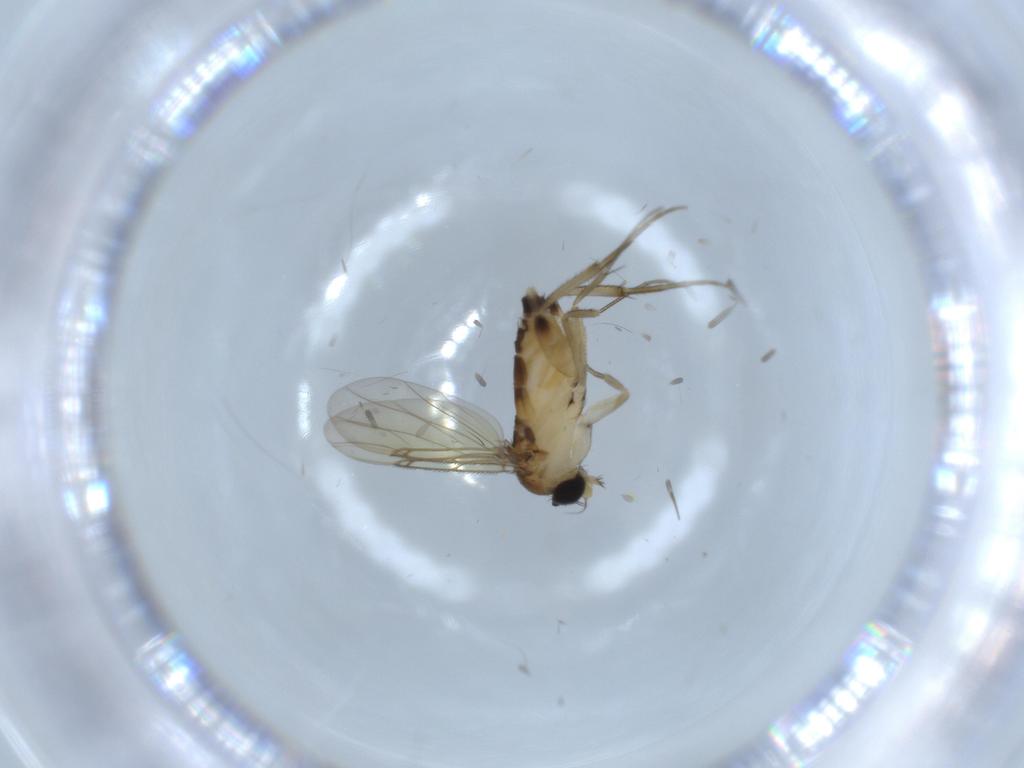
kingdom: Animalia
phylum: Arthropoda
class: Insecta
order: Diptera
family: Phoridae
